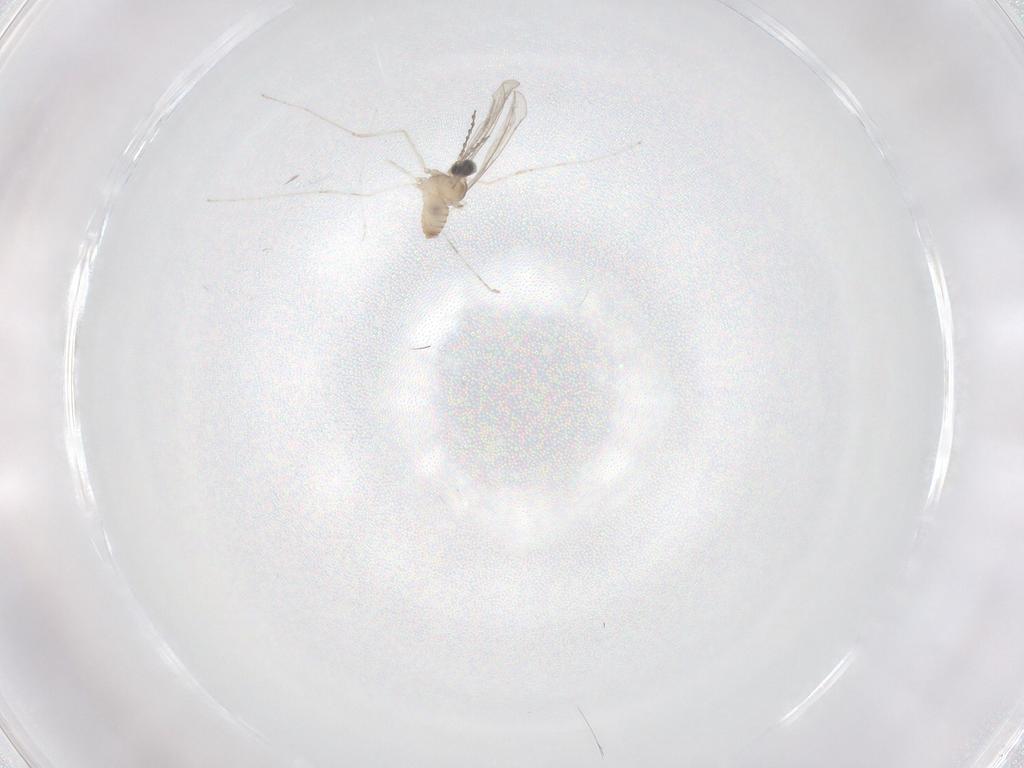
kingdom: Animalia
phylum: Arthropoda
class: Insecta
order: Diptera
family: Cecidomyiidae
